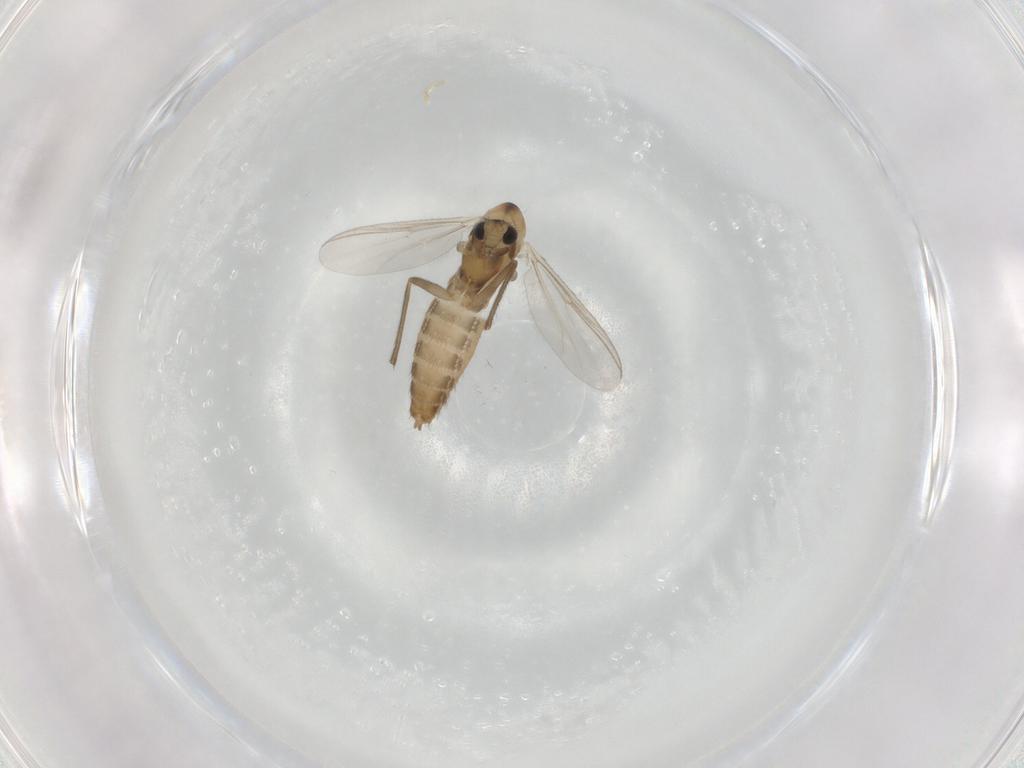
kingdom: Animalia
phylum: Arthropoda
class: Insecta
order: Diptera
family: Chironomidae
